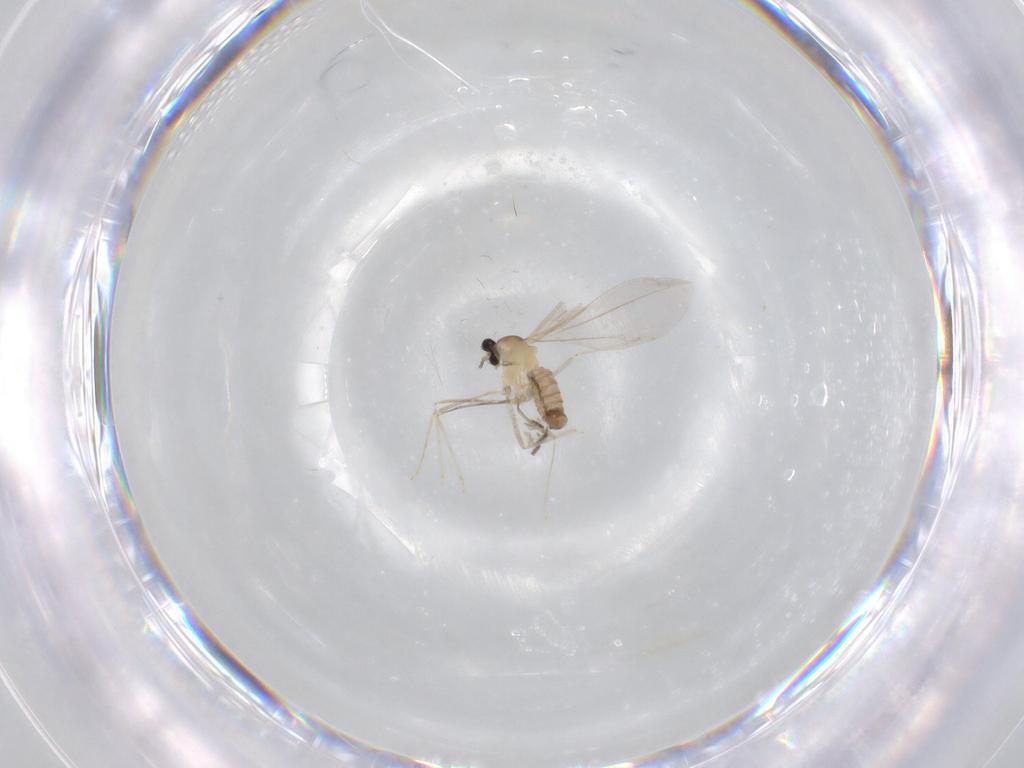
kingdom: Animalia
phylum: Arthropoda
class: Insecta
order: Diptera
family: Cecidomyiidae
